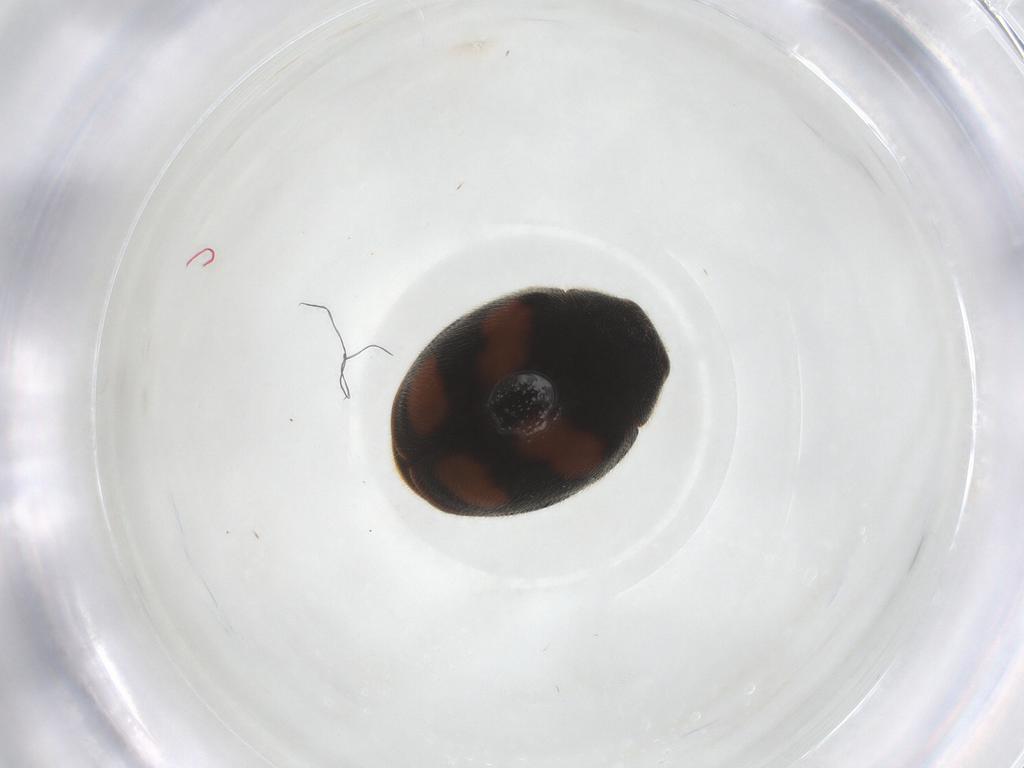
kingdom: Animalia
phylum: Arthropoda
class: Insecta
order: Coleoptera
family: Coccinellidae
